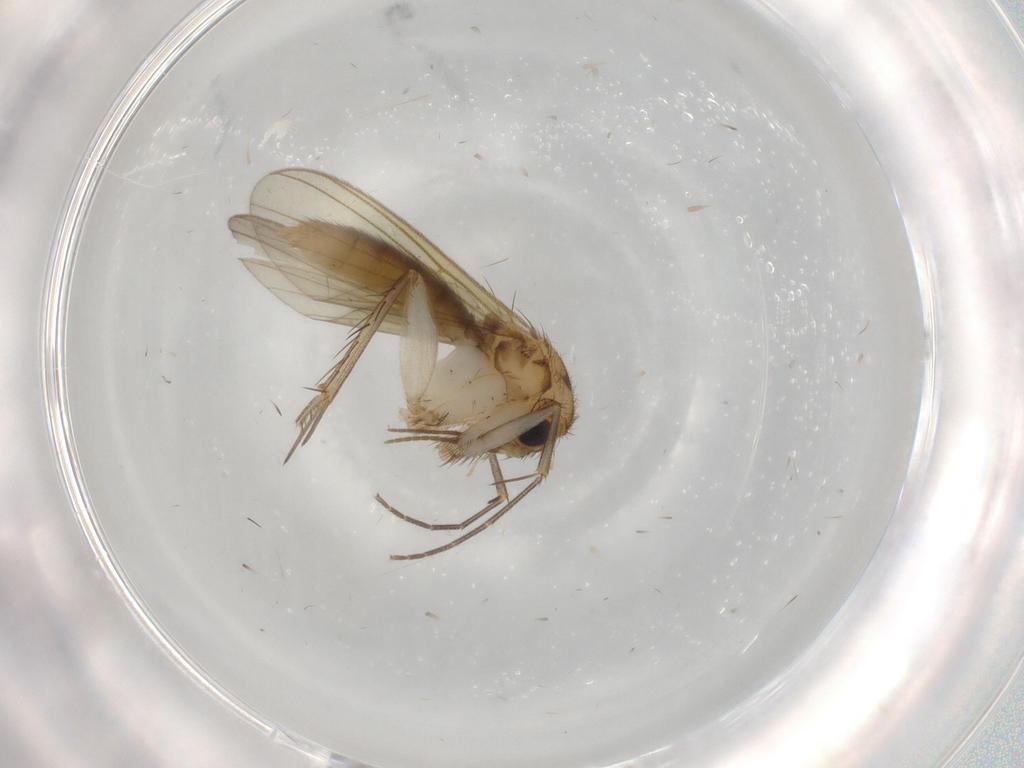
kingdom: Animalia
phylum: Arthropoda
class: Insecta
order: Diptera
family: Mycetophilidae
